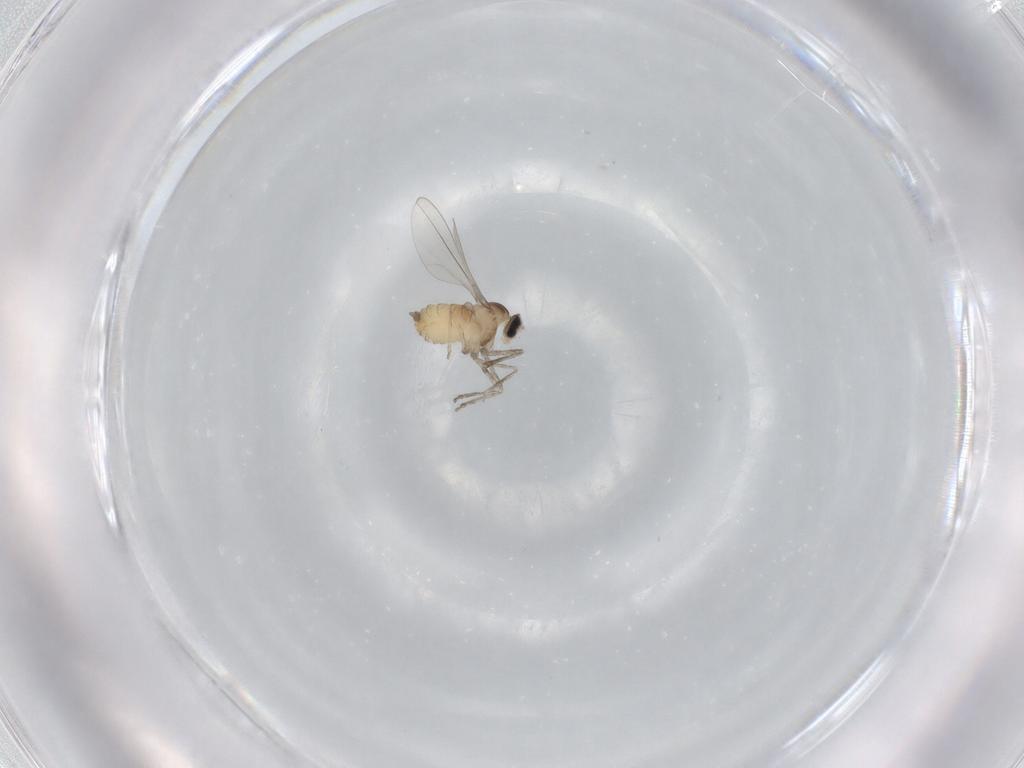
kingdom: Animalia
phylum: Arthropoda
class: Insecta
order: Diptera
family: Cecidomyiidae
